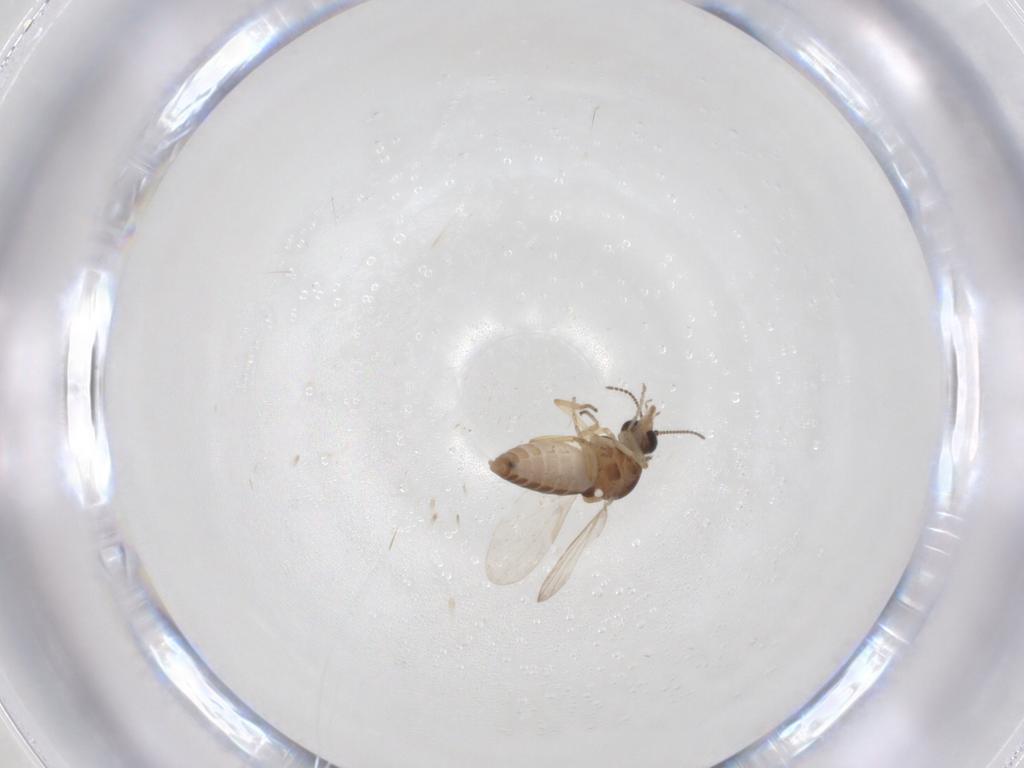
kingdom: Animalia
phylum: Arthropoda
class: Insecta
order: Diptera
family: Ceratopogonidae
